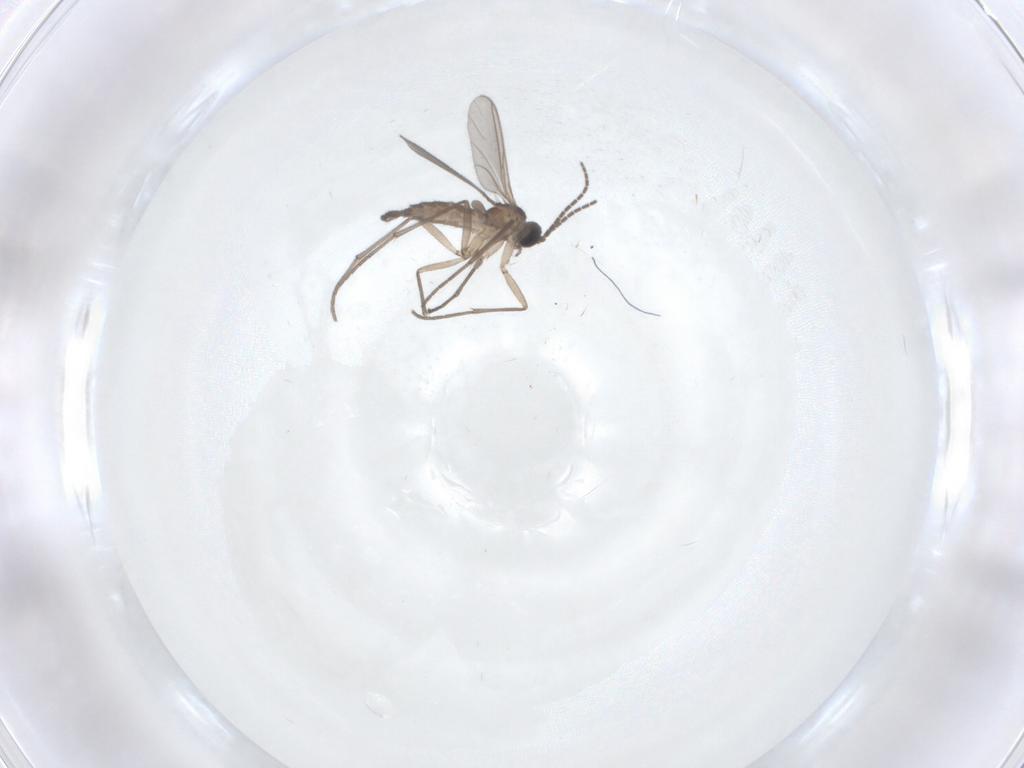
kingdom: Animalia
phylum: Arthropoda
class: Insecta
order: Diptera
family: Sciaridae
